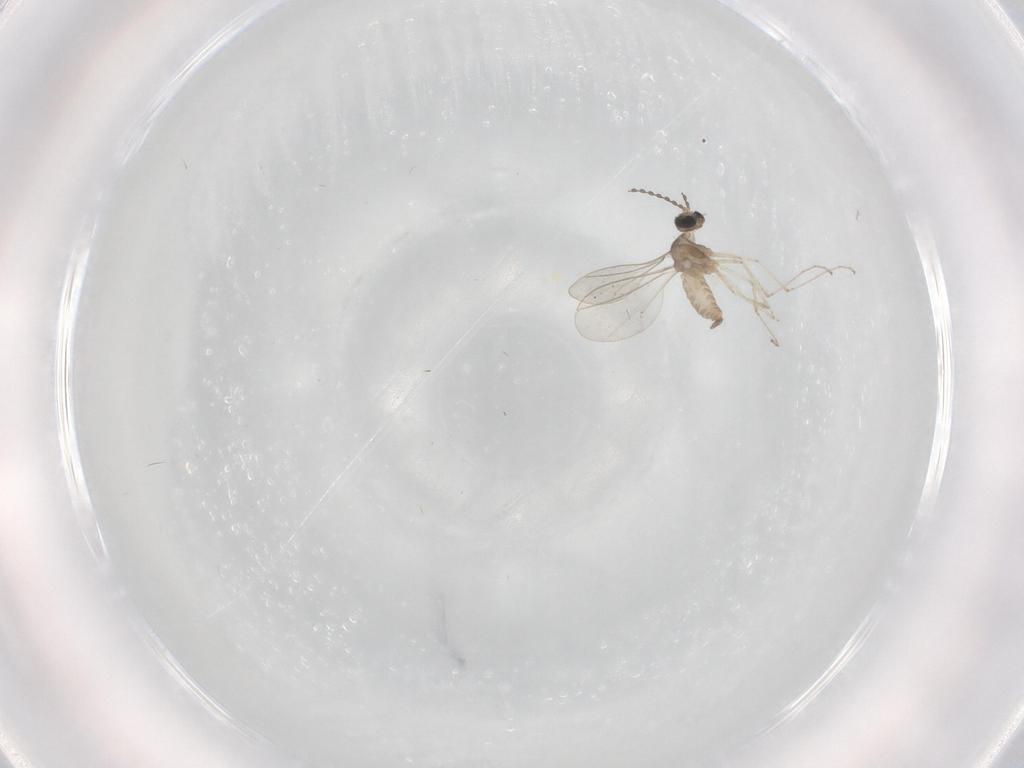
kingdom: Animalia
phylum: Arthropoda
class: Insecta
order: Diptera
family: Cecidomyiidae
